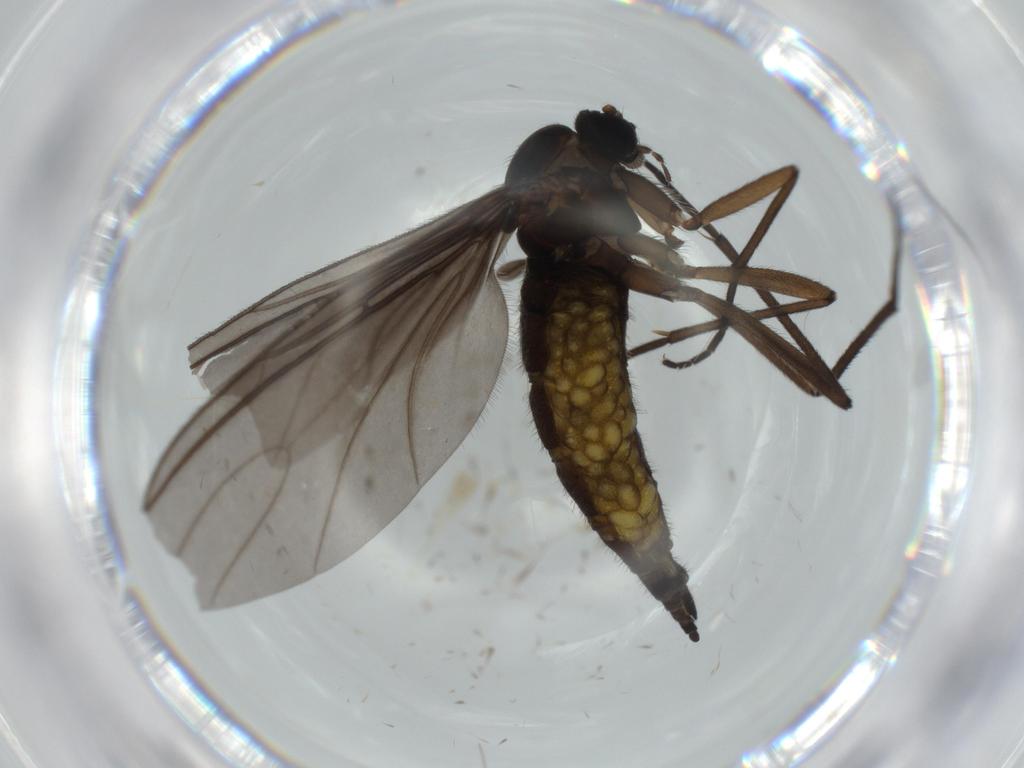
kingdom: Animalia
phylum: Arthropoda
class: Insecta
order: Diptera
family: Sciaridae
